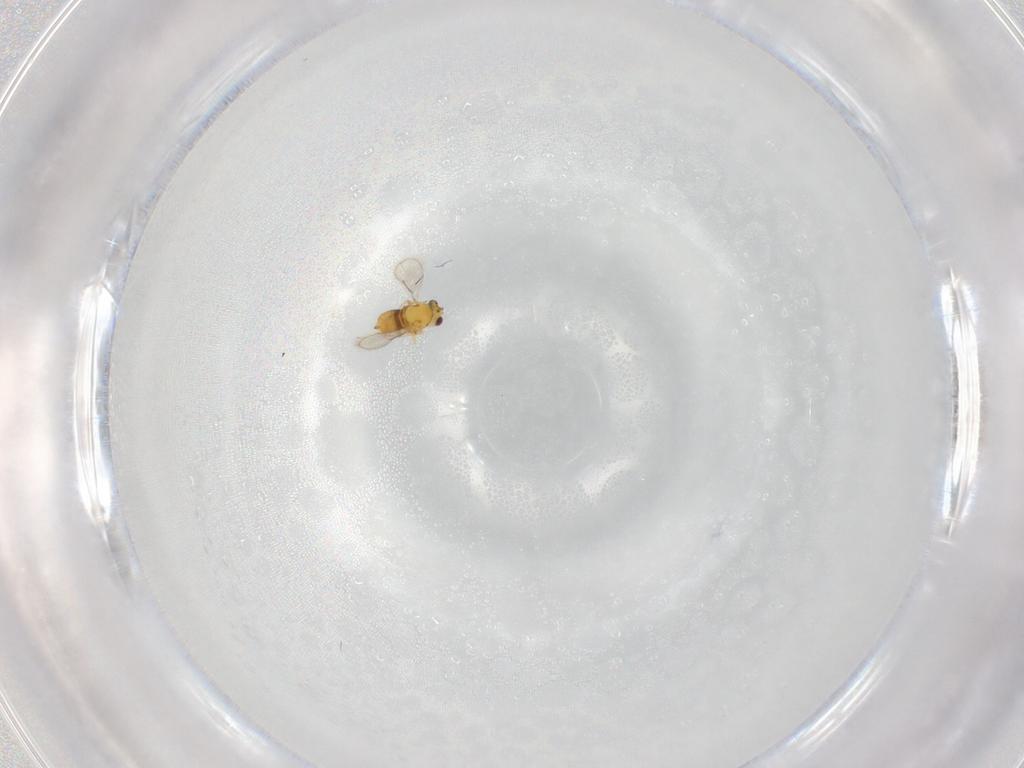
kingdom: Animalia
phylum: Arthropoda
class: Insecta
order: Hymenoptera
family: Aphelinidae
